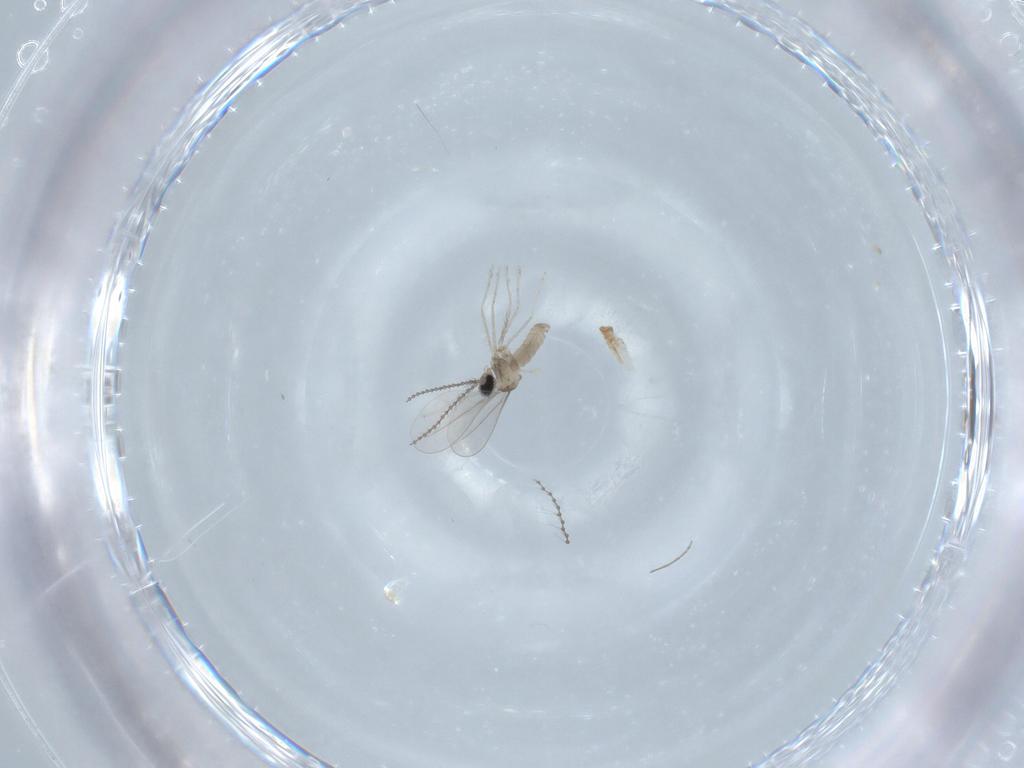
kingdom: Animalia
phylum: Arthropoda
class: Insecta
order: Diptera
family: Chironomidae
